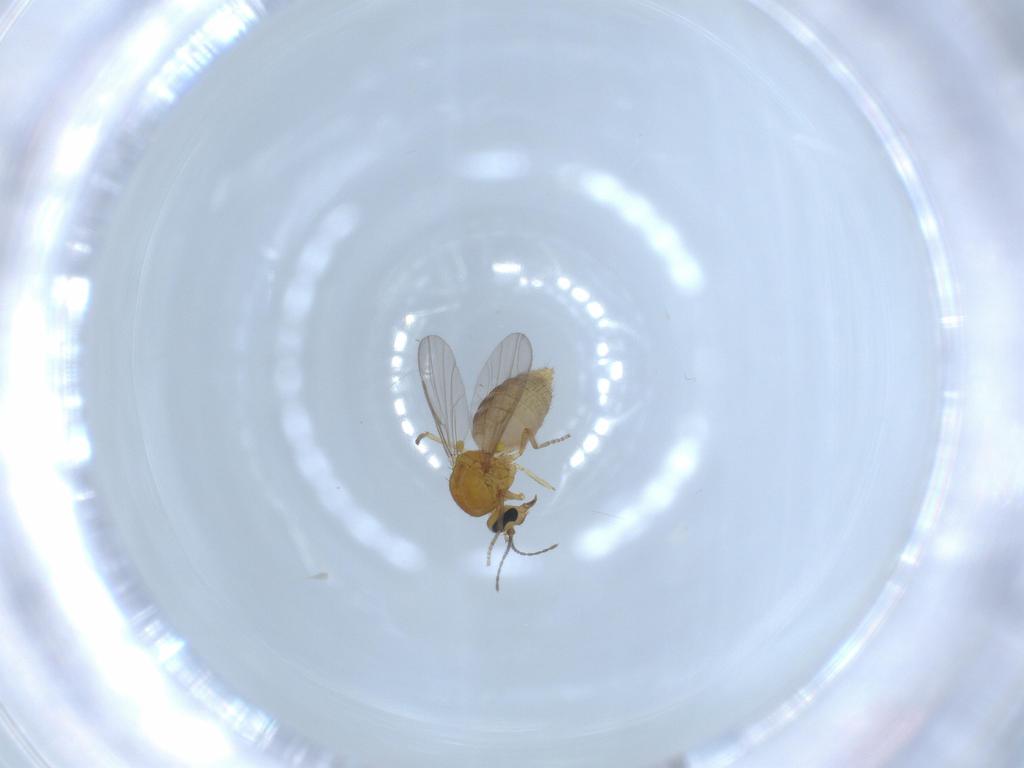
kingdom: Animalia
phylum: Arthropoda
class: Insecta
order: Diptera
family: Ceratopogonidae
